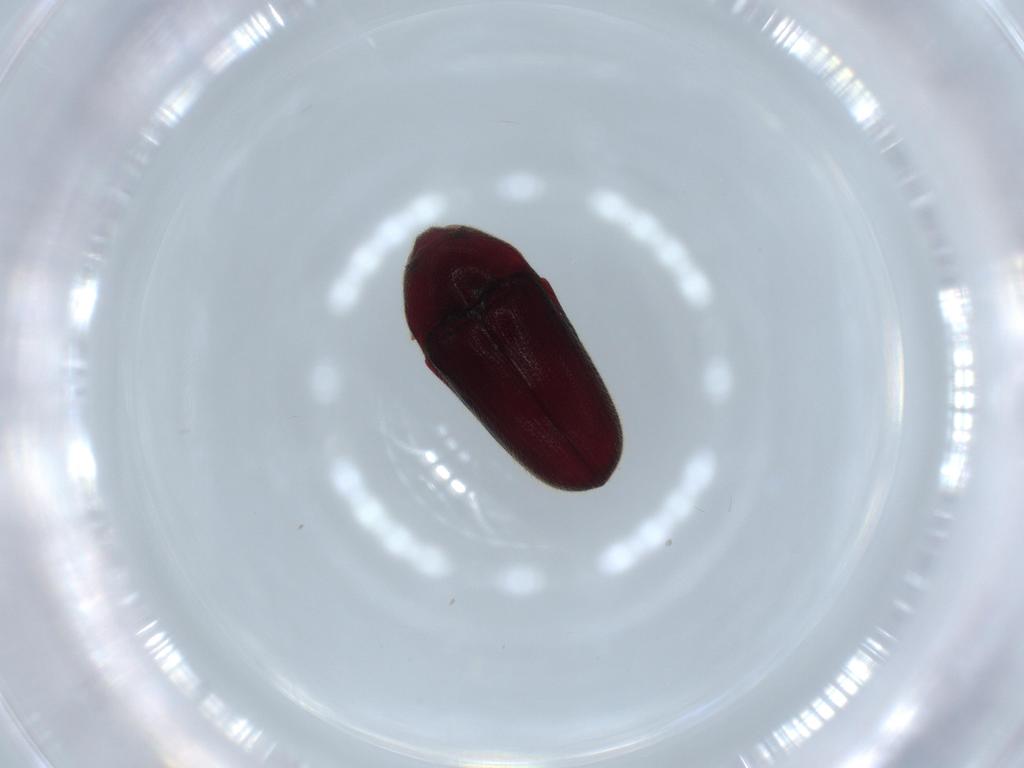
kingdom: Animalia
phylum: Arthropoda
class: Insecta
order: Coleoptera
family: Throscidae
